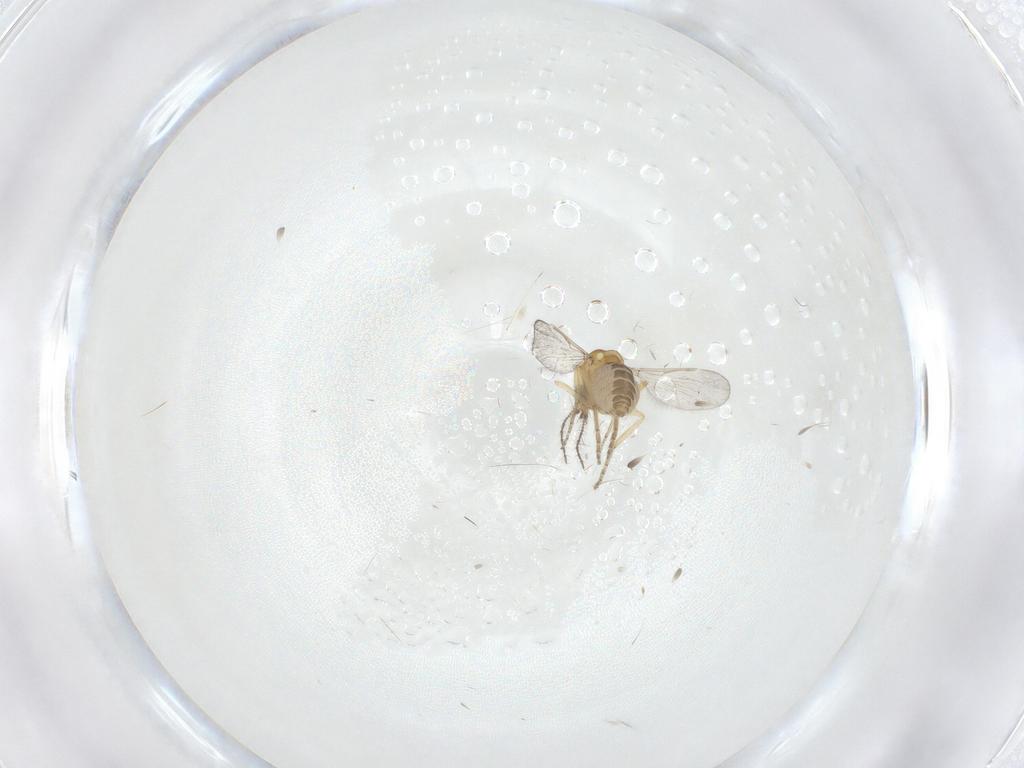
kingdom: Animalia
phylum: Arthropoda
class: Insecta
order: Diptera
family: Ceratopogonidae
